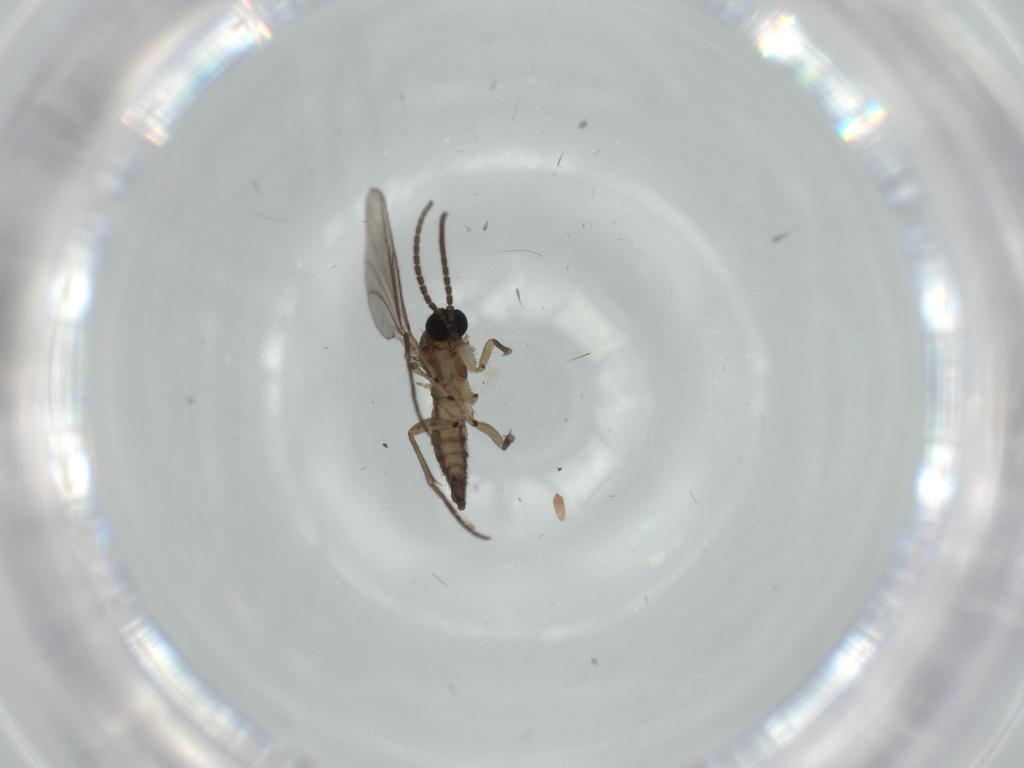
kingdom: Animalia
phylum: Arthropoda
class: Insecta
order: Diptera
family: Sciaridae
